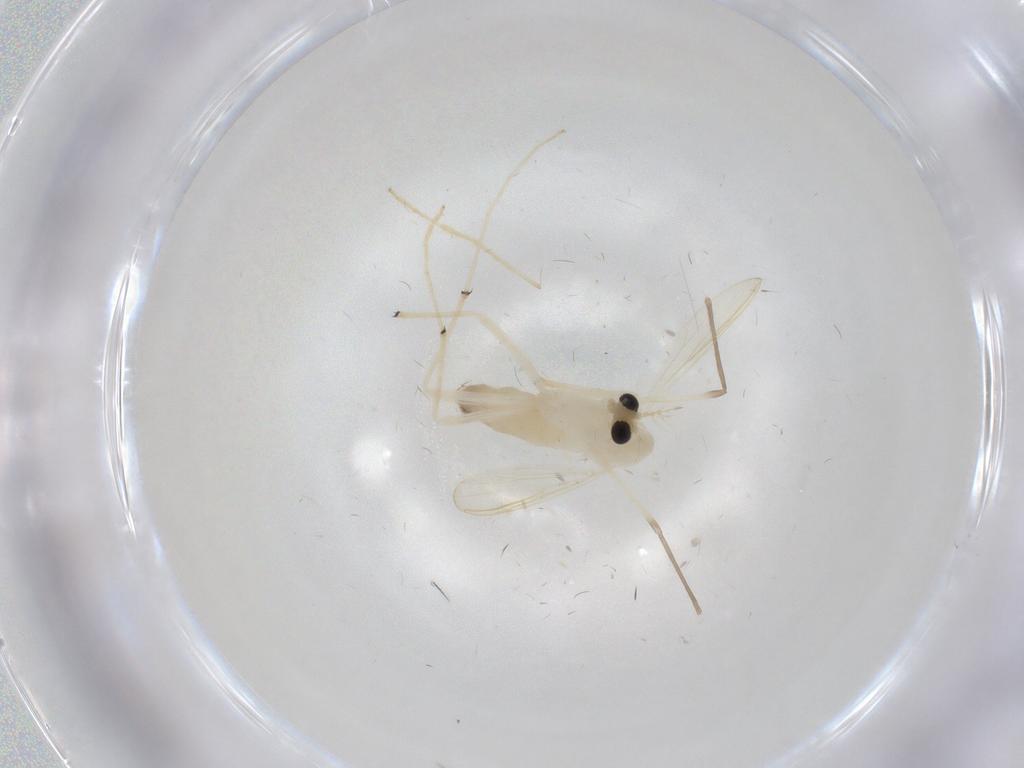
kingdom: Animalia
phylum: Arthropoda
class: Insecta
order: Diptera
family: Chironomidae
